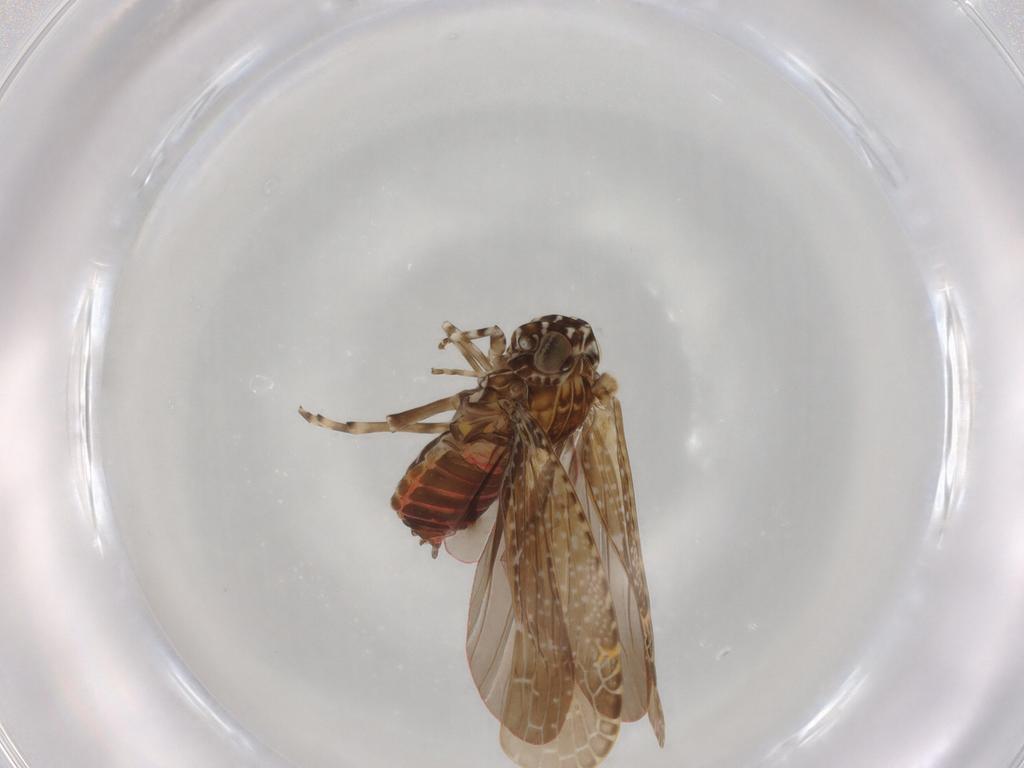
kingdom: Animalia
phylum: Arthropoda
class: Insecta
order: Hemiptera
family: Achilidae
